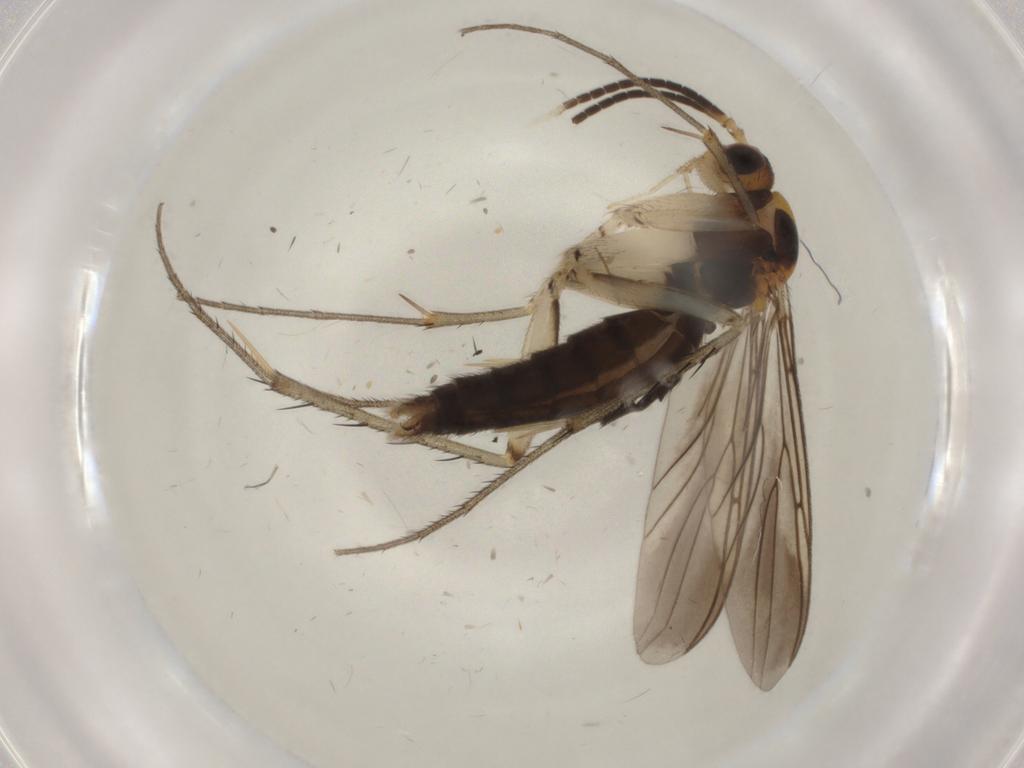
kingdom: Animalia
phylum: Arthropoda
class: Insecta
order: Diptera
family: Mycetophilidae
